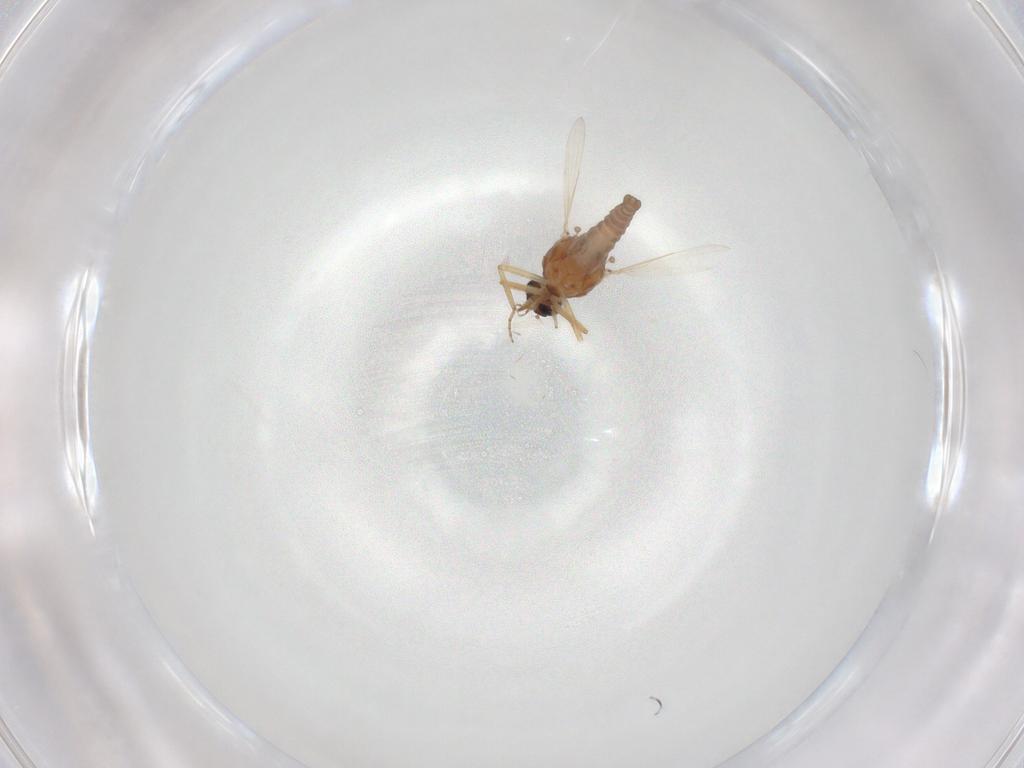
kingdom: Animalia
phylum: Arthropoda
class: Insecta
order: Diptera
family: Ceratopogonidae
